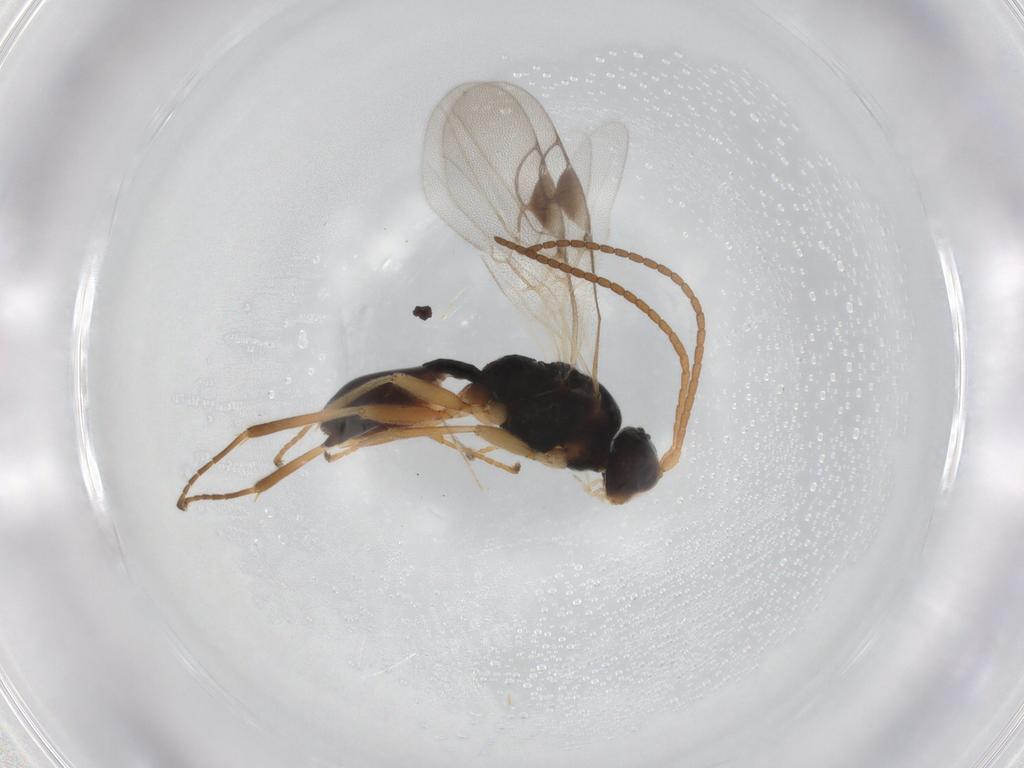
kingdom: Animalia
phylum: Arthropoda
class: Insecta
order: Hymenoptera
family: Braconidae
